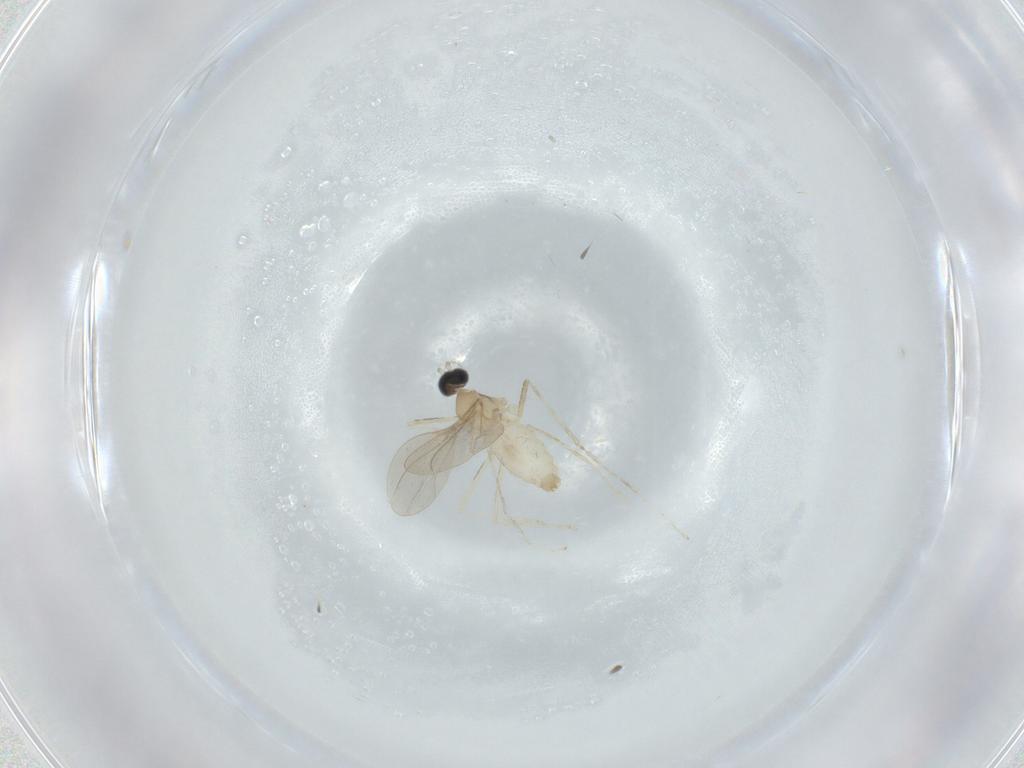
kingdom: Animalia
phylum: Arthropoda
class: Insecta
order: Diptera
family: Cecidomyiidae
